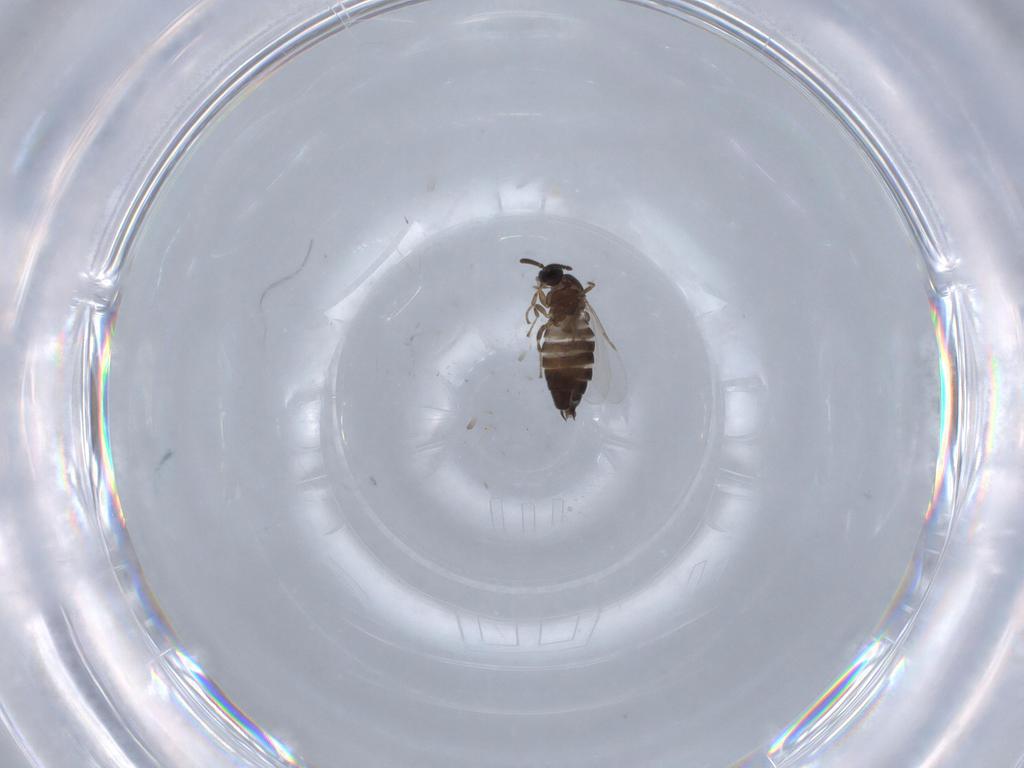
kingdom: Animalia
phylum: Arthropoda
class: Insecta
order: Diptera
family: Scatopsidae
